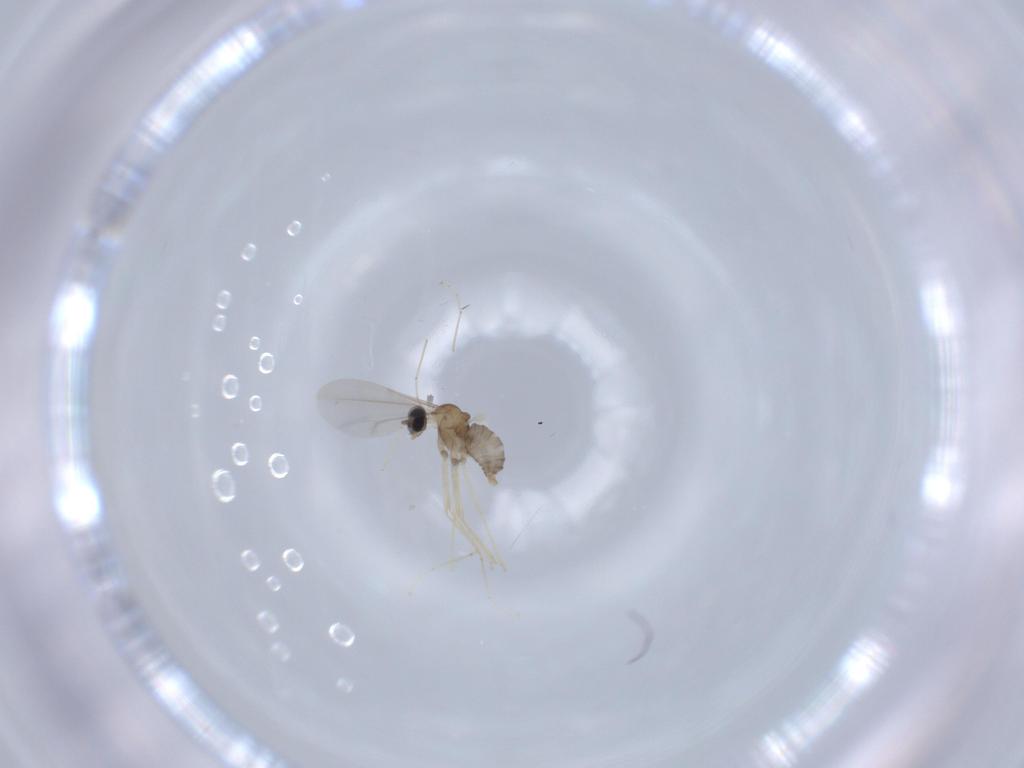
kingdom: Animalia
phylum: Arthropoda
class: Insecta
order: Diptera
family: Cecidomyiidae
